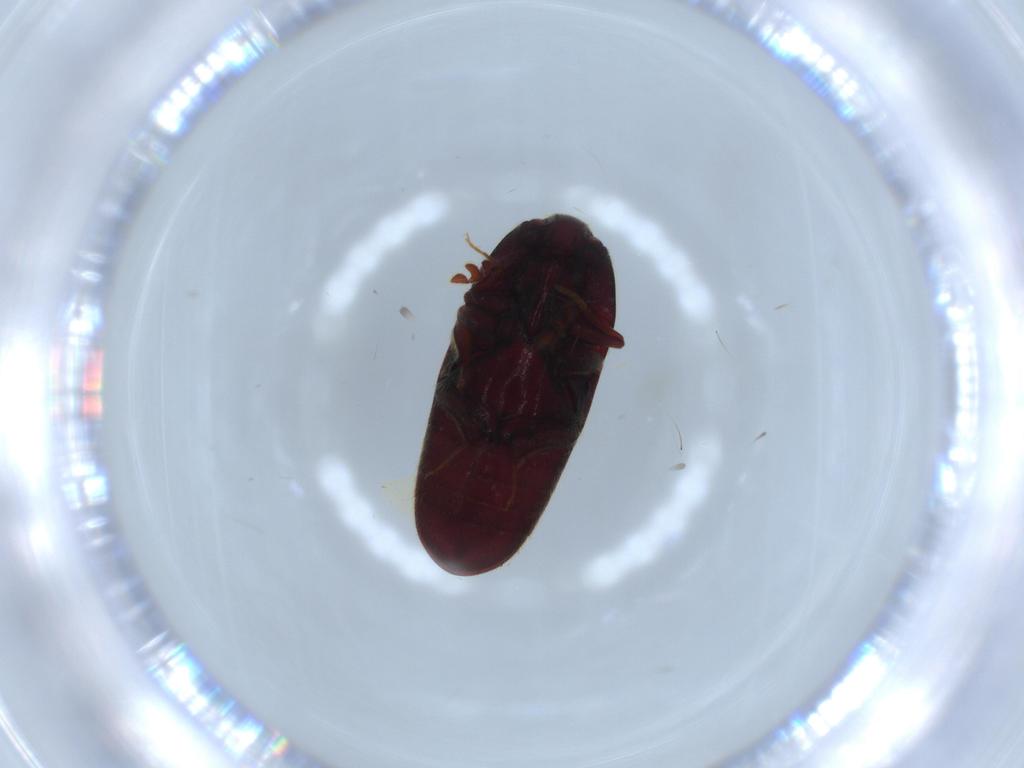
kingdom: Animalia
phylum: Arthropoda
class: Insecta
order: Coleoptera
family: Throscidae
